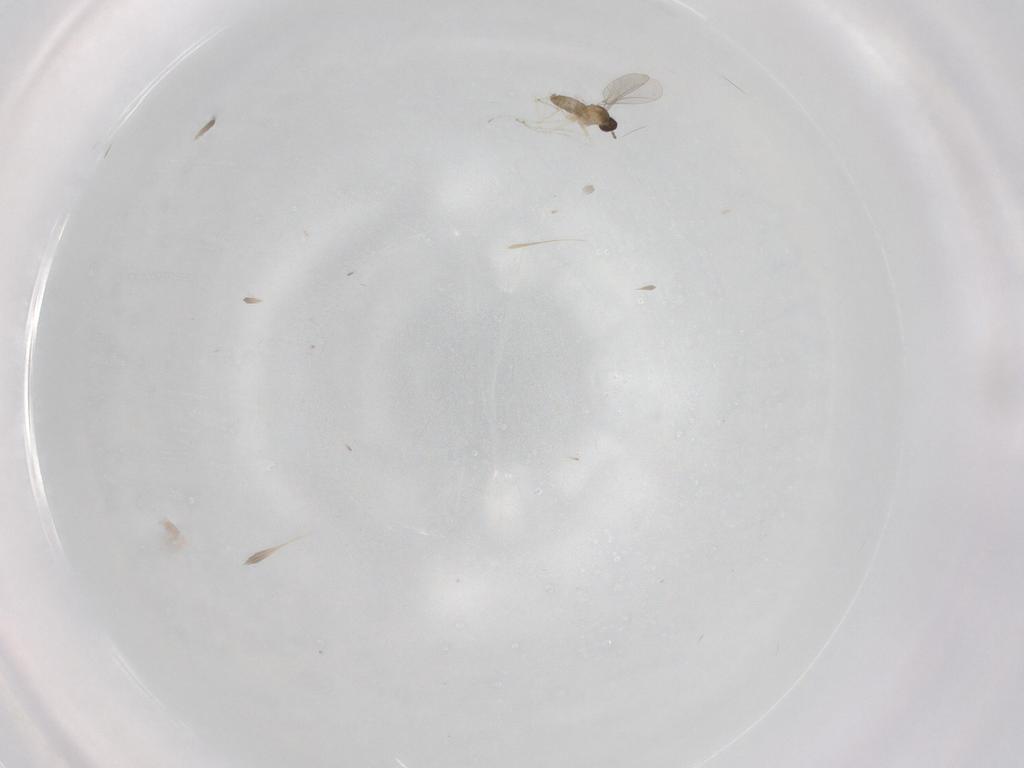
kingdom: Animalia
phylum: Arthropoda
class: Insecta
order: Diptera
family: Cecidomyiidae
